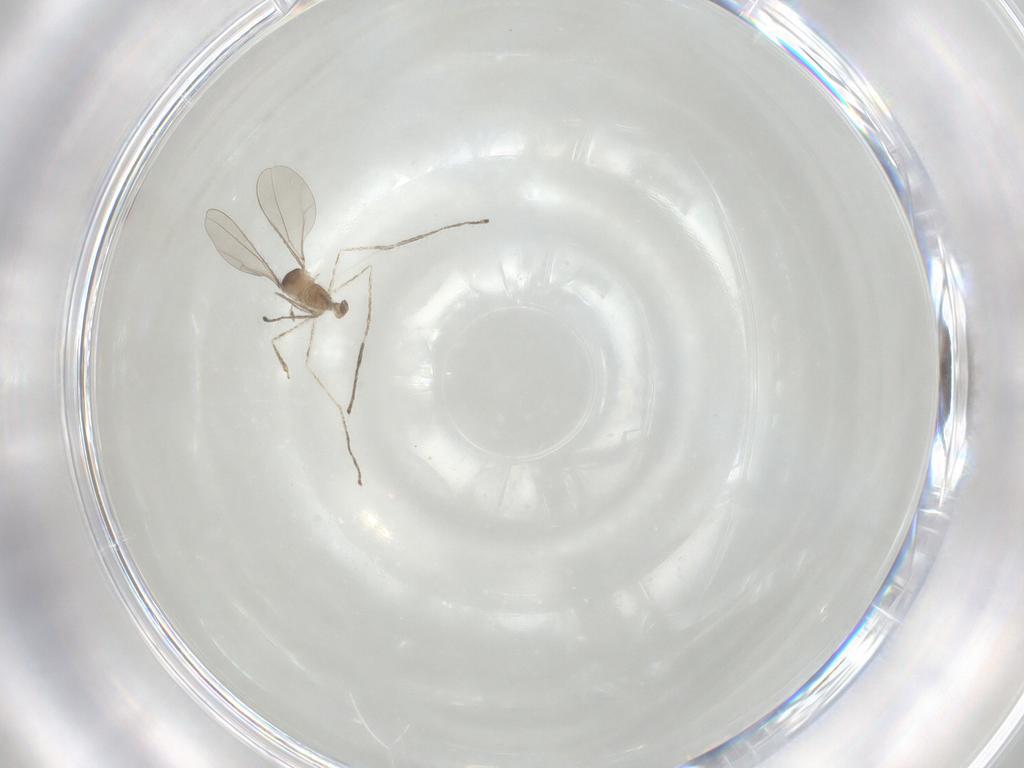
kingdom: Animalia
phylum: Arthropoda
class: Insecta
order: Diptera
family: Cecidomyiidae
